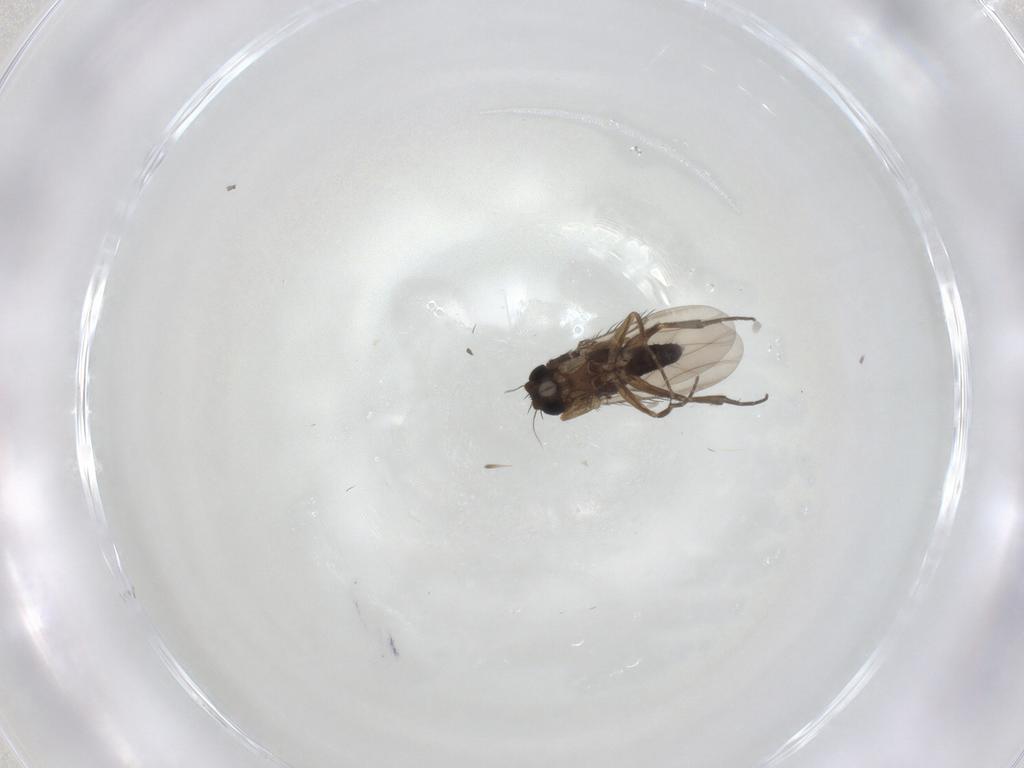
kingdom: Animalia
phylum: Arthropoda
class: Insecta
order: Diptera
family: Phoridae
